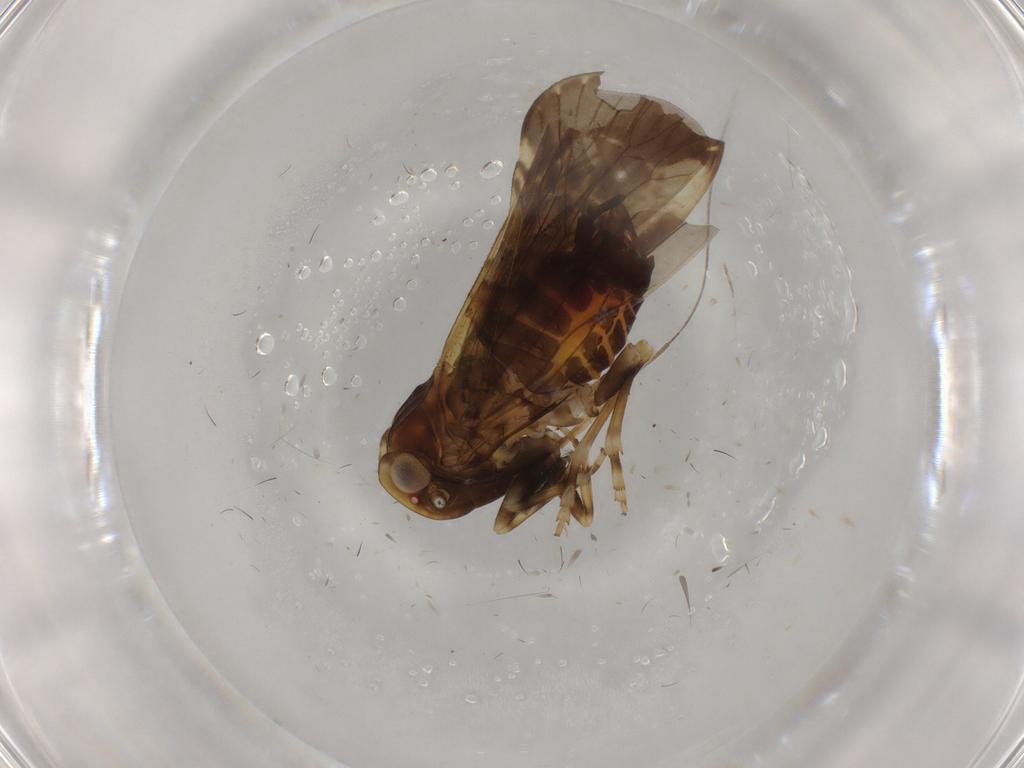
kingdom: Animalia
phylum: Arthropoda
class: Insecta
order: Hemiptera
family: Cixiidae
